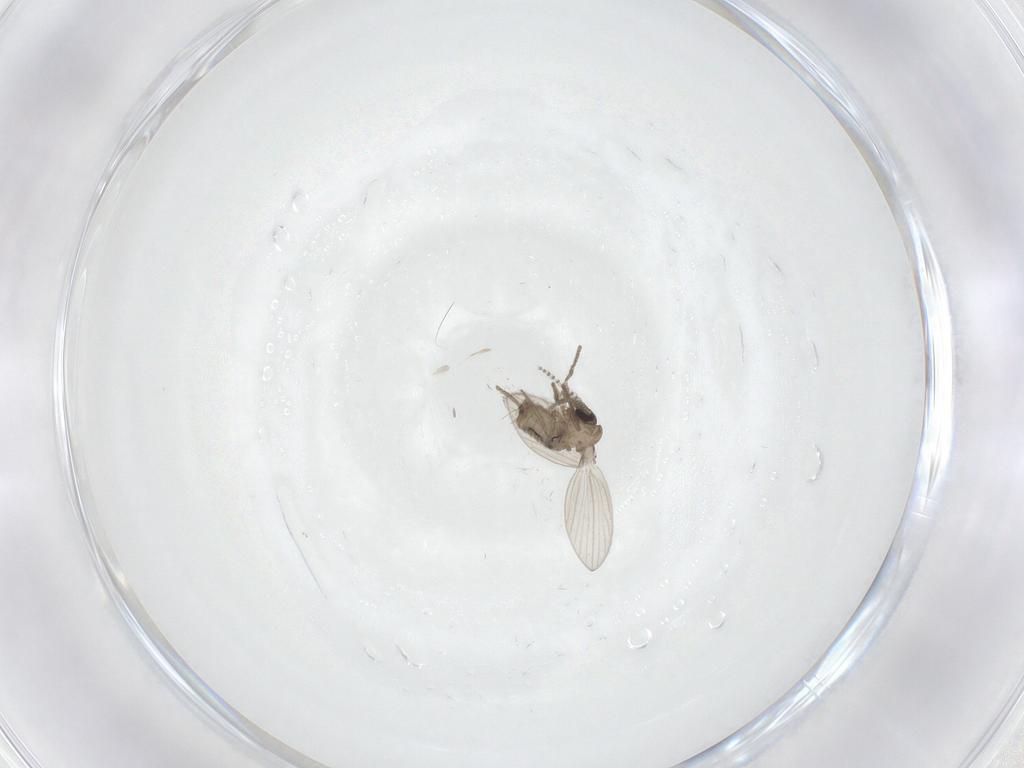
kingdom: Animalia
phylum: Arthropoda
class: Insecta
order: Diptera
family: Psychodidae
